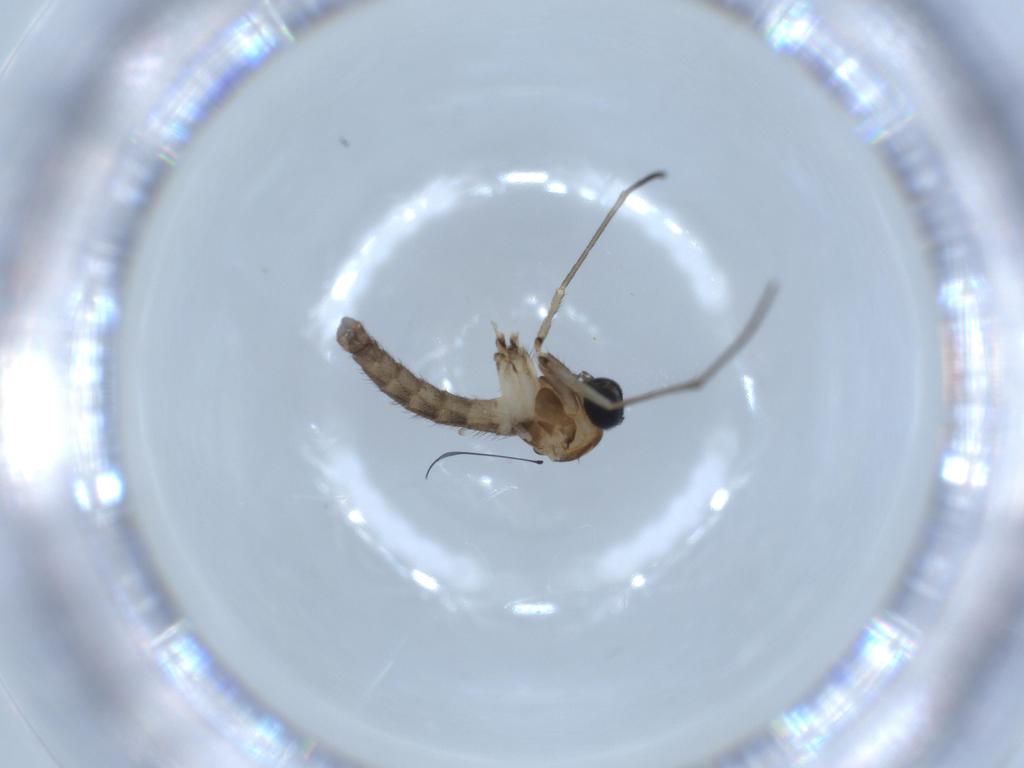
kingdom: Animalia
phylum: Arthropoda
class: Insecta
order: Diptera
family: Sciaridae
